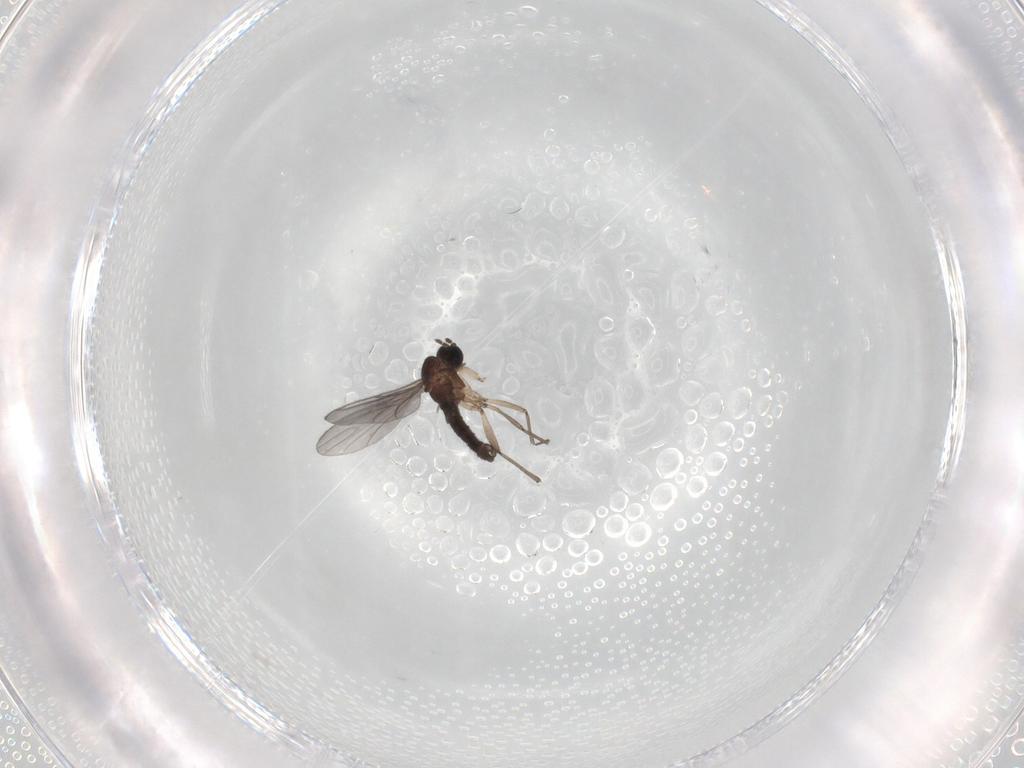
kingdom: Animalia
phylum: Arthropoda
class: Insecta
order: Diptera
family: Sciaridae
